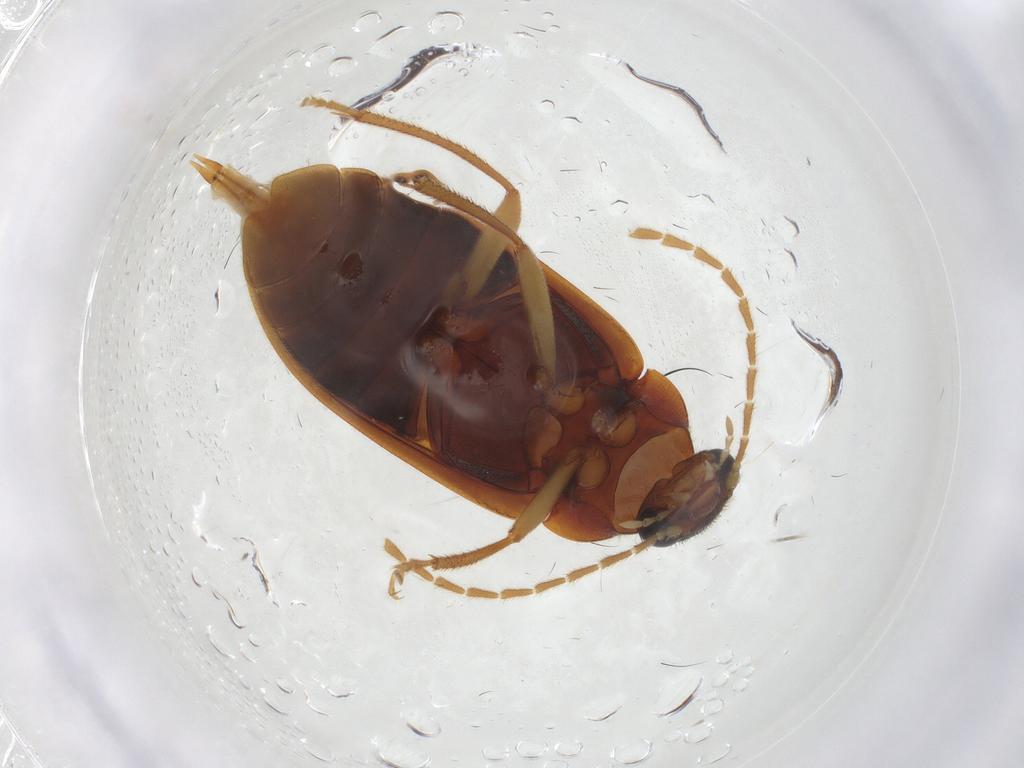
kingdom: Animalia
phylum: Arthropoda
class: Insecta
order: Coleoptera
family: Ptilodactylidae
